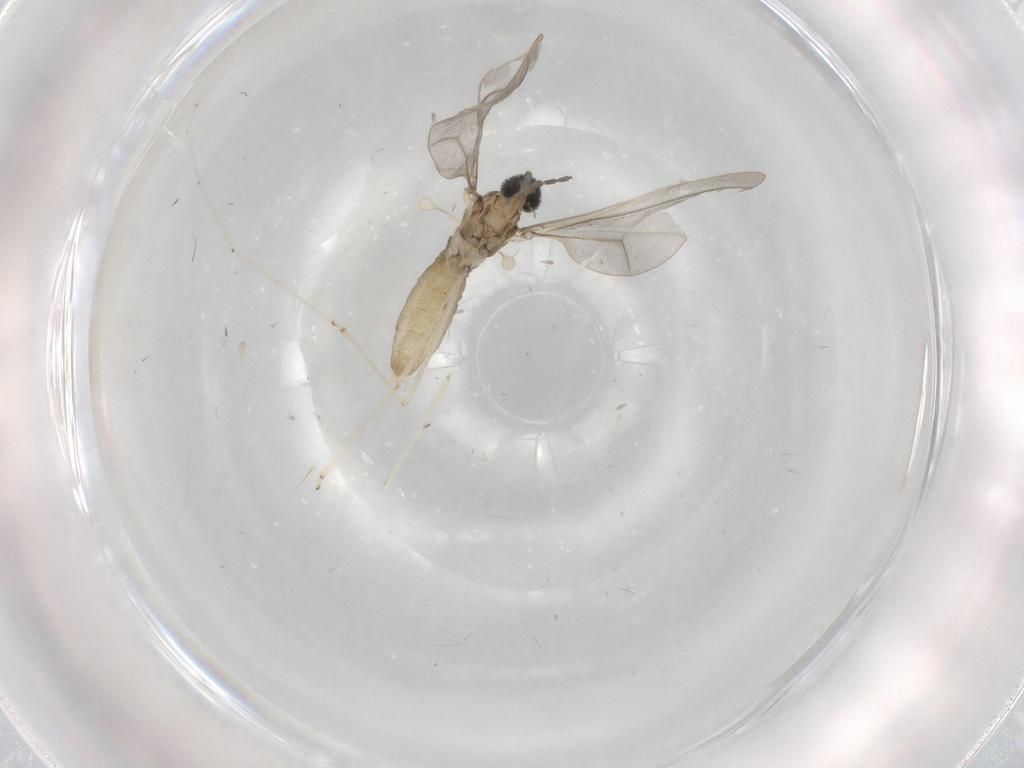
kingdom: Animalia
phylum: Arthropoda
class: Insecta
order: Diptera
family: Cecidomyiidae
